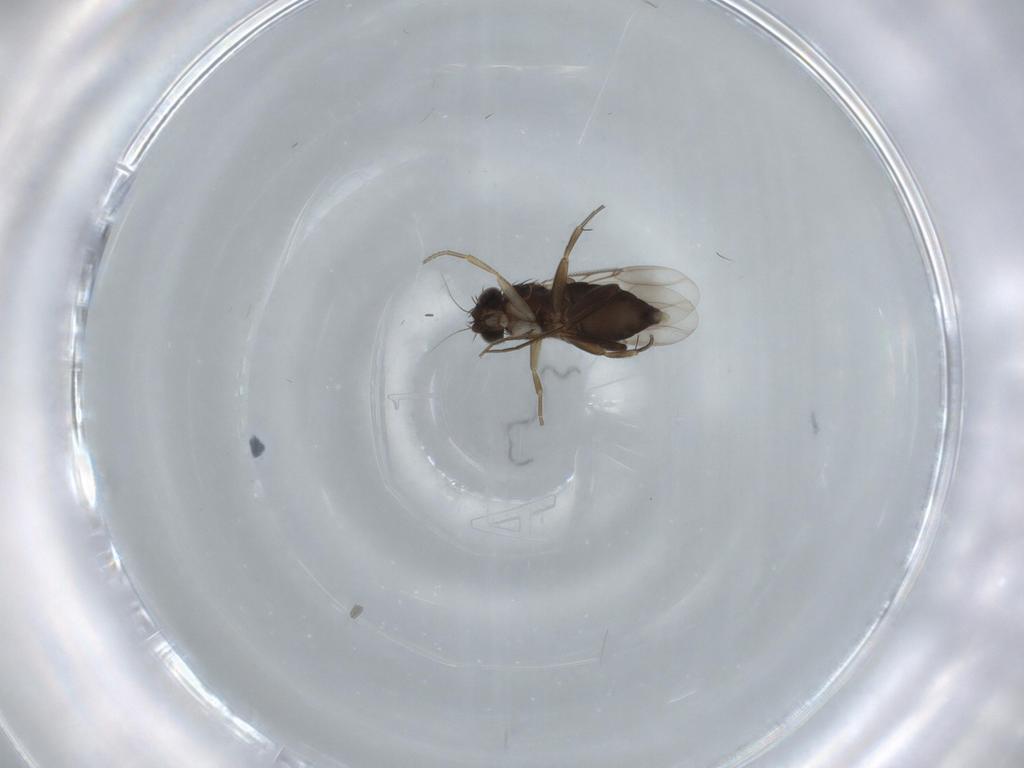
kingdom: Animalia
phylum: Arthropoda
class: Insecta
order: Diptera
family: Phoridae
